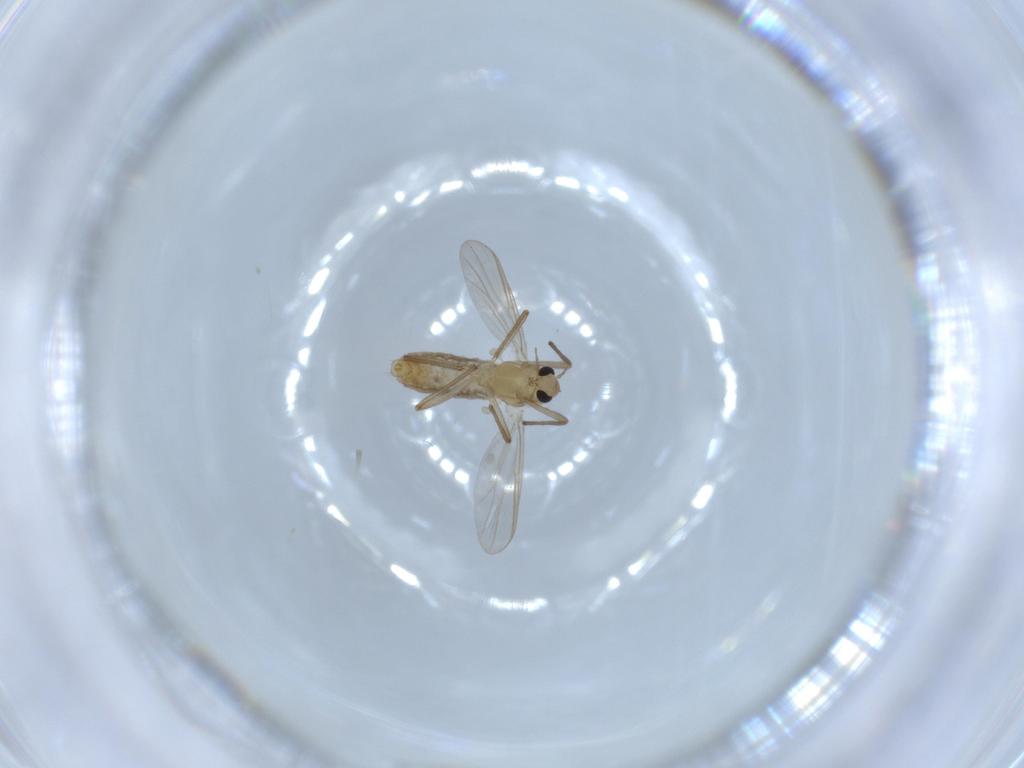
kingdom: Animalia
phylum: Arthropoda
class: Insecta
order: Diptera
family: Chironomidae
